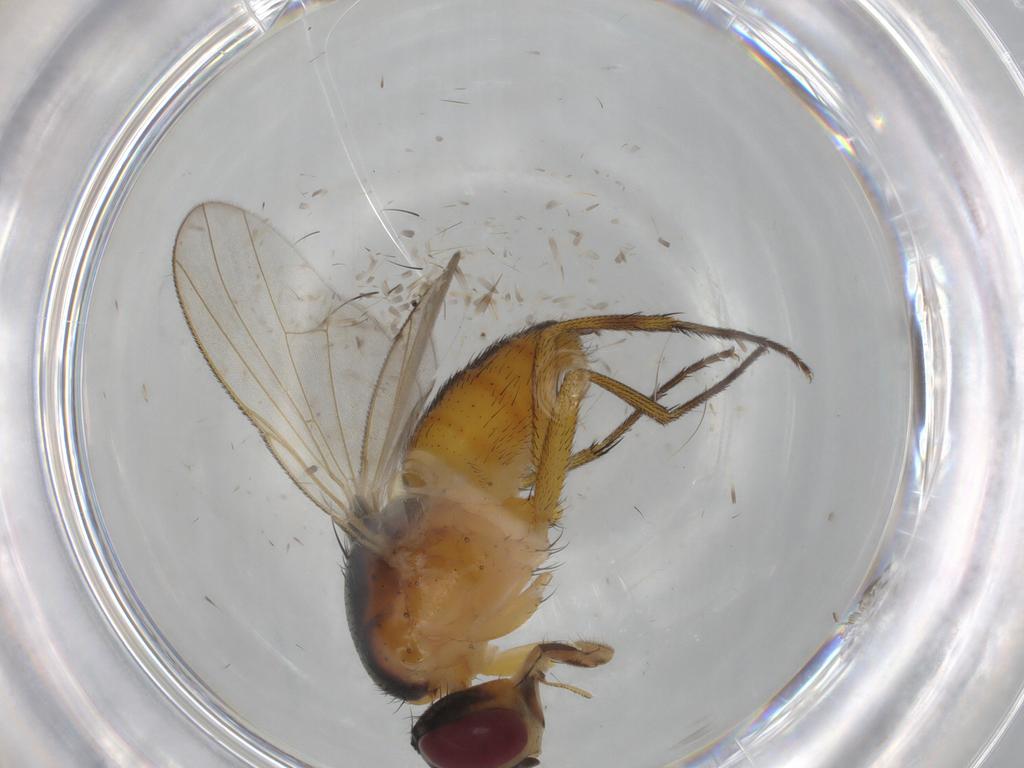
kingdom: Animalia
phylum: Arthropoda
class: Insecta
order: Diptera
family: Muscidae
